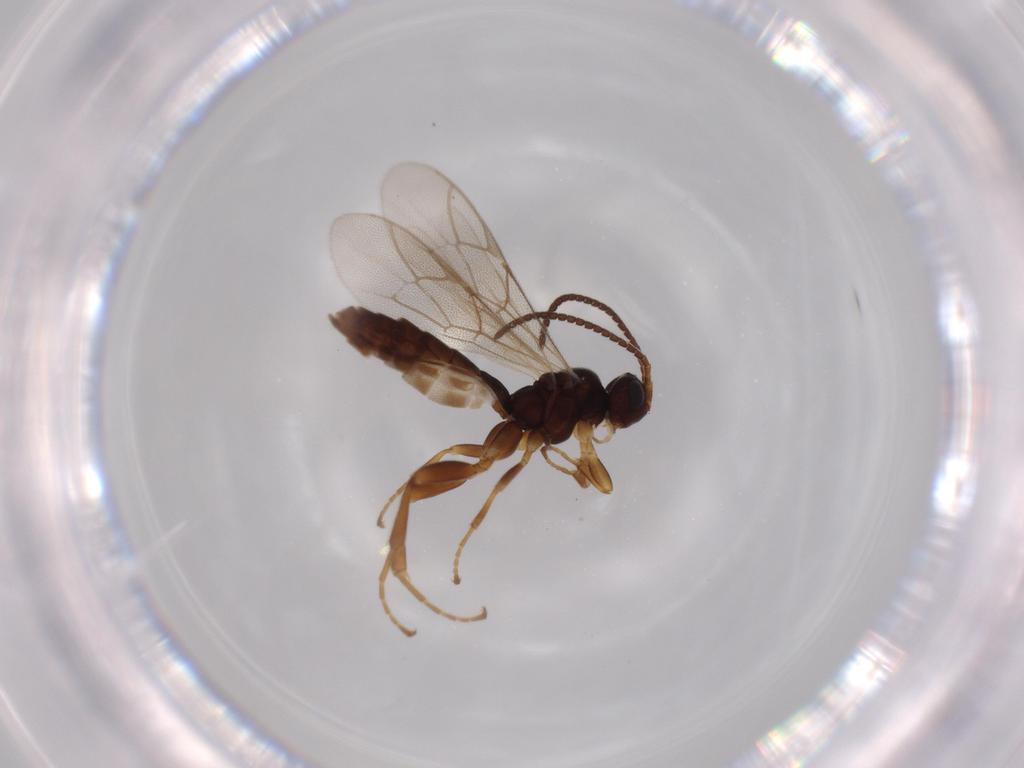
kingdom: Animalia
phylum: Arthropoda
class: Insecta
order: Hymenoptera
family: Ichneumonidae
